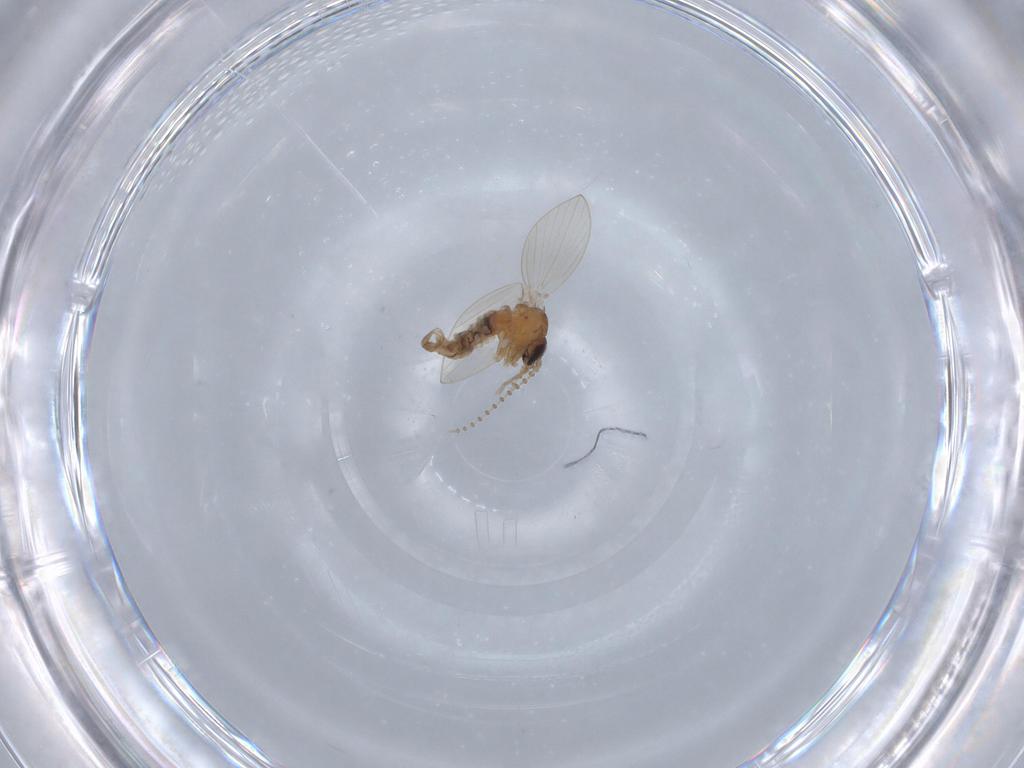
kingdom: Animalia
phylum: Arthropoda
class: Insecta
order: Diptera
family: Psychodidae
